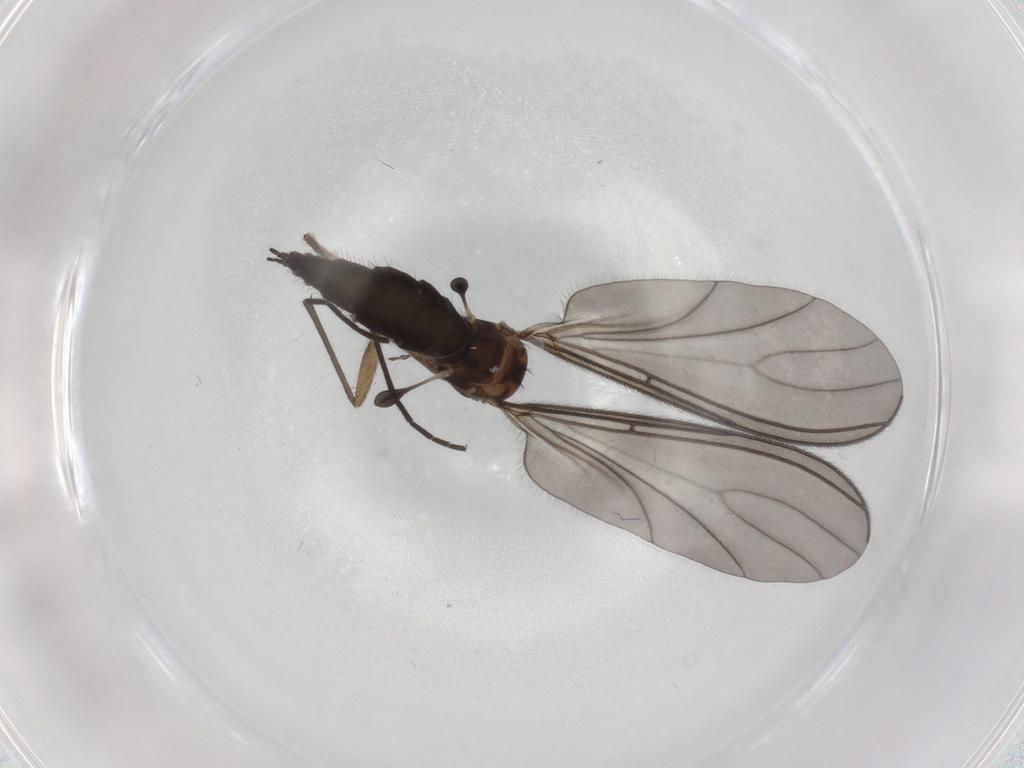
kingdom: Animalia
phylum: Arthropoda
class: Insecta
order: Diptera
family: Sciaridae
